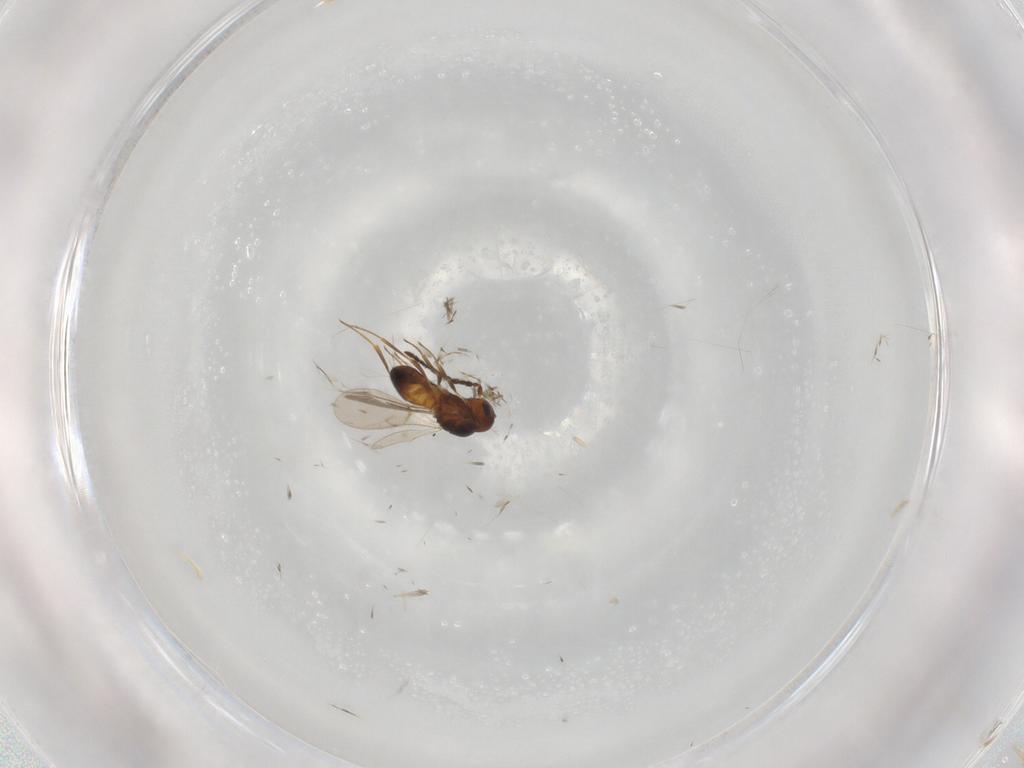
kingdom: Animalia
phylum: Arthropoda
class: Insecta
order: Hymenoptera
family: Scelionidae
